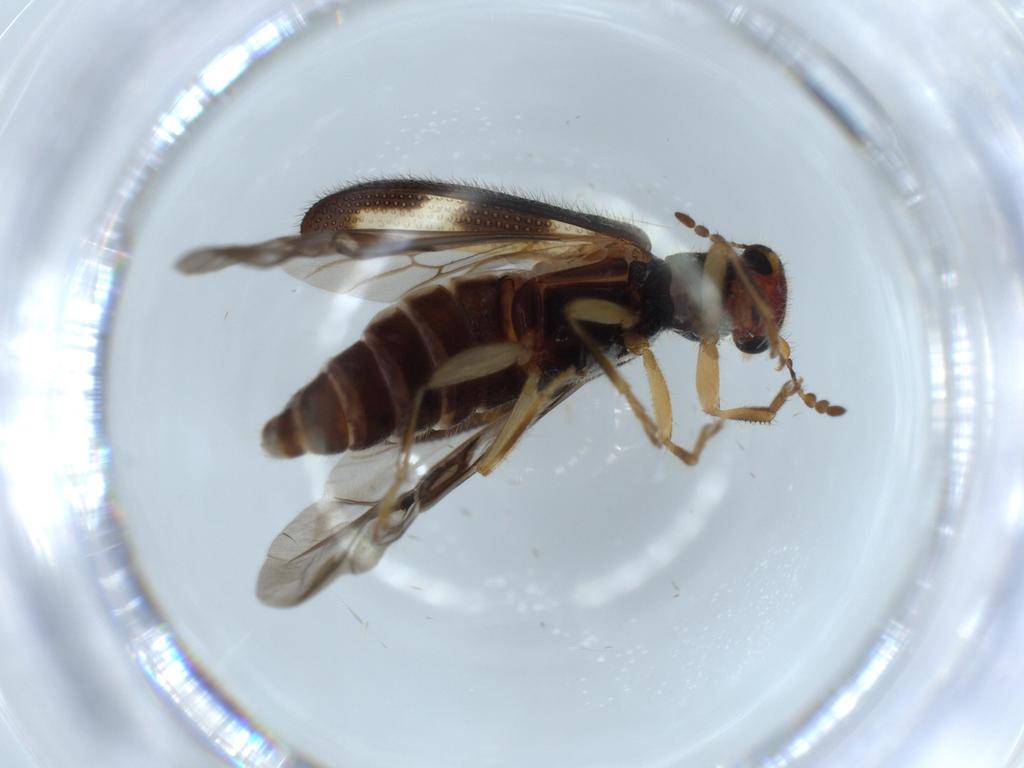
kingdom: Animalia
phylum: Arthropoda
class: Insecta
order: Coleoptera
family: Cleridae
